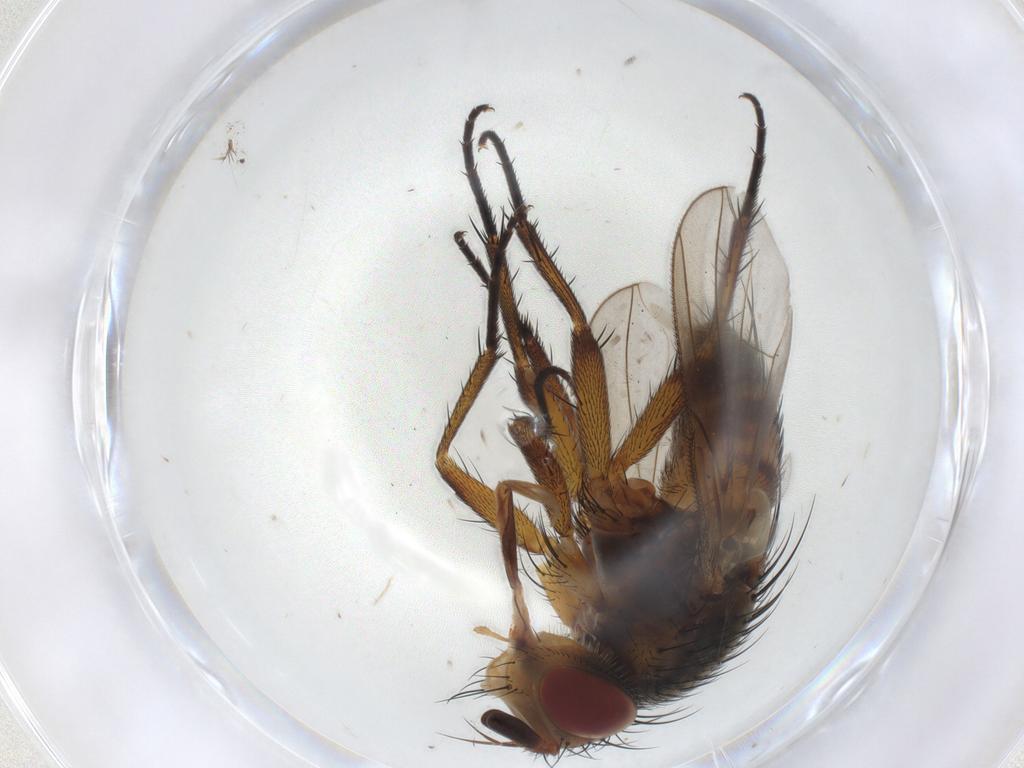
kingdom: Animalia
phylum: Arthropoda
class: Insecta
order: Diptera
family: Tachinidae
